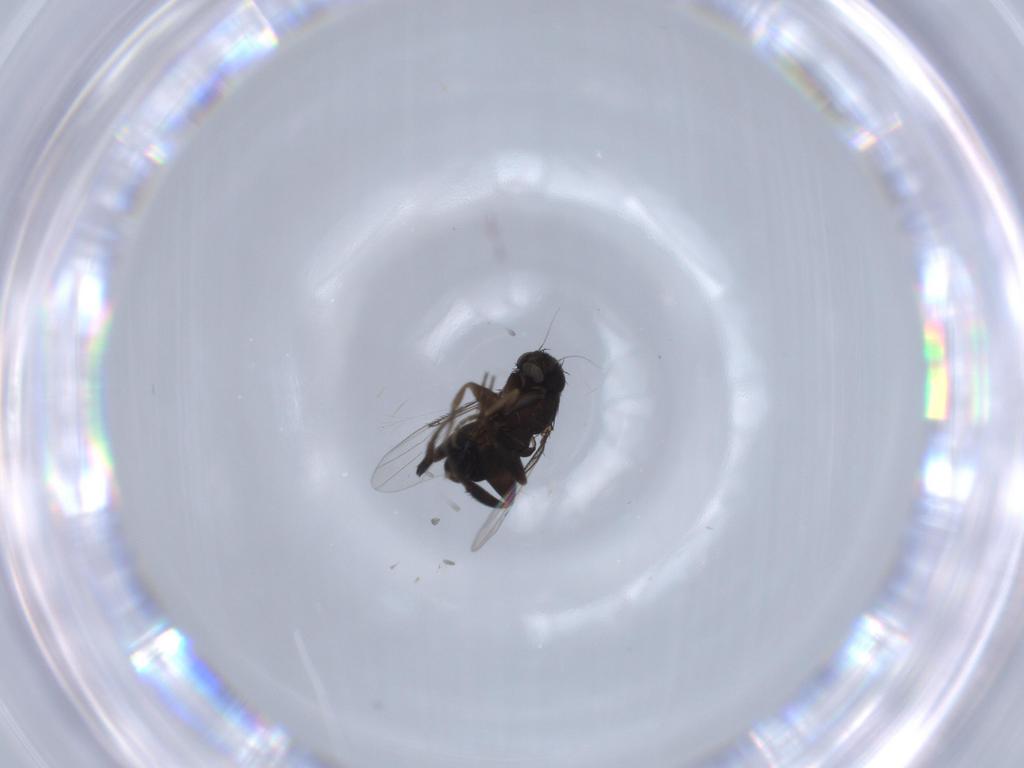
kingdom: Animalia
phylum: Arthropoda
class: Insecta
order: Diptera
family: Phoridae
